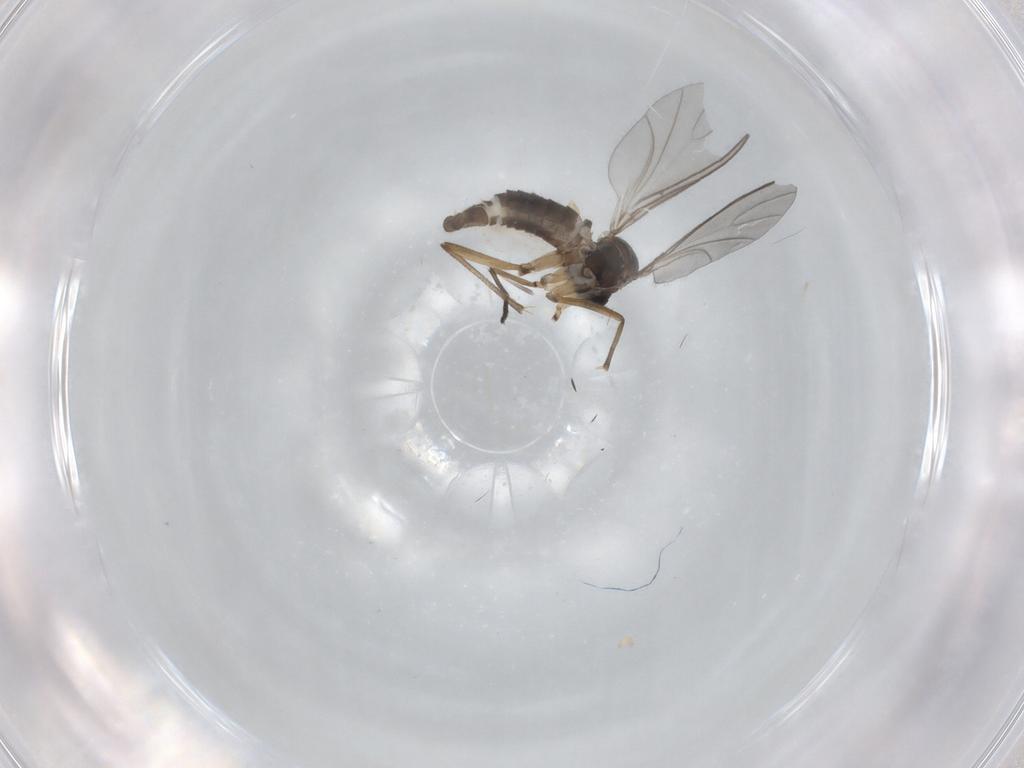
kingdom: Animalia
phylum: Arthropoda
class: Insecta
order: Diptera
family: Sciaridae
